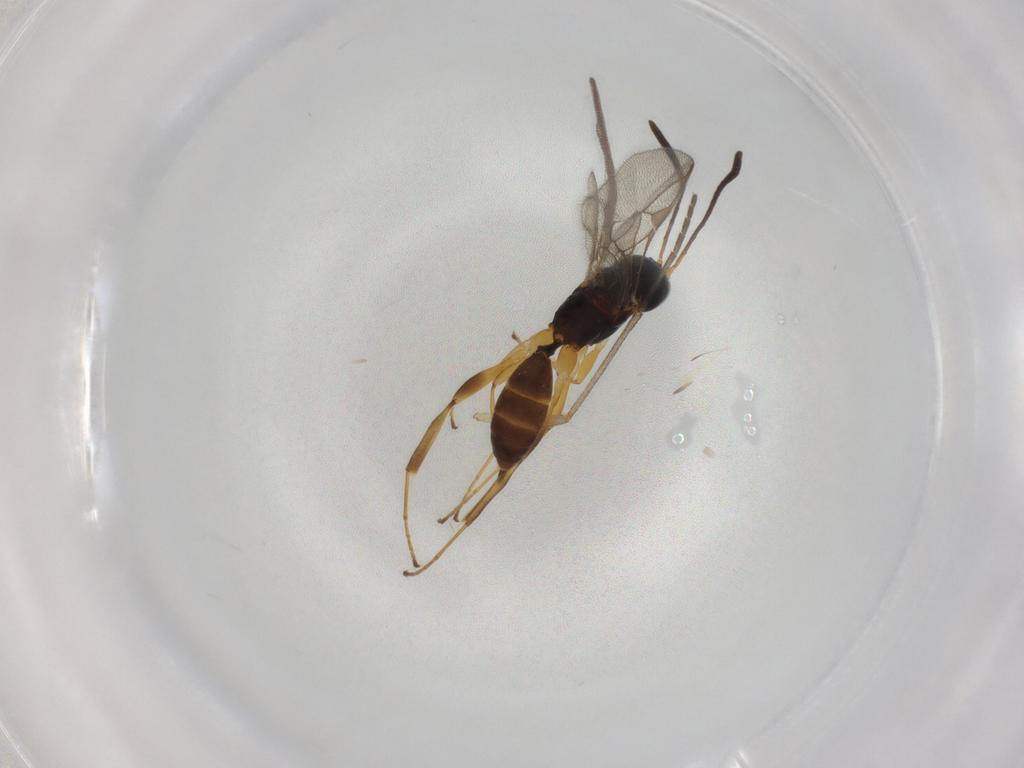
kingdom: Animalia
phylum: Arthropoda
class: Insecta
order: Hymenoptera
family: Ichneumonidae
